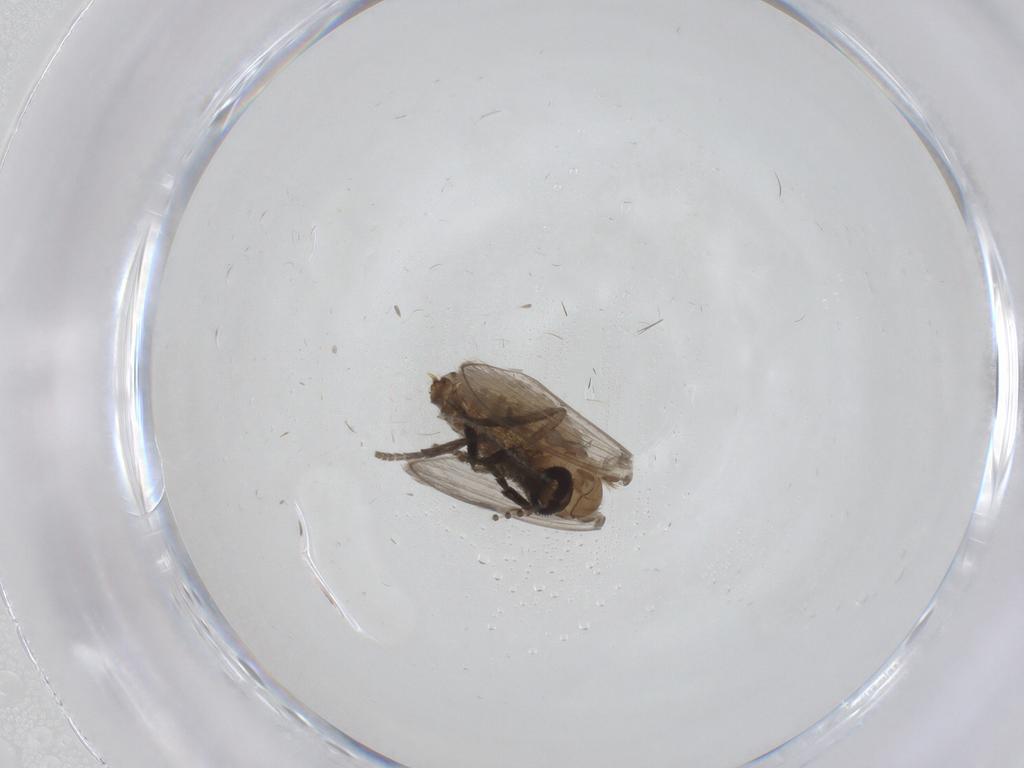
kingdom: Animalia
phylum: Arthropoda
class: Insecta
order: Diptera
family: Psychodidae
